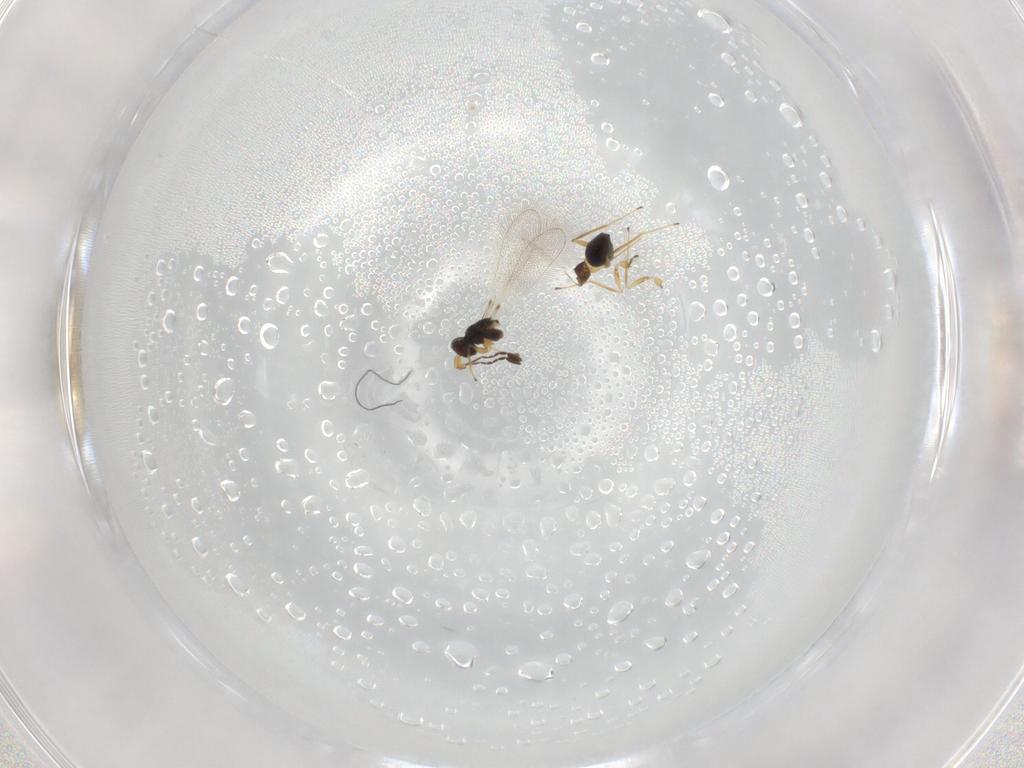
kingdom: Animalia
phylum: Arthropoda
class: Insecta
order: Hymenoptera
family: Mymaridae
